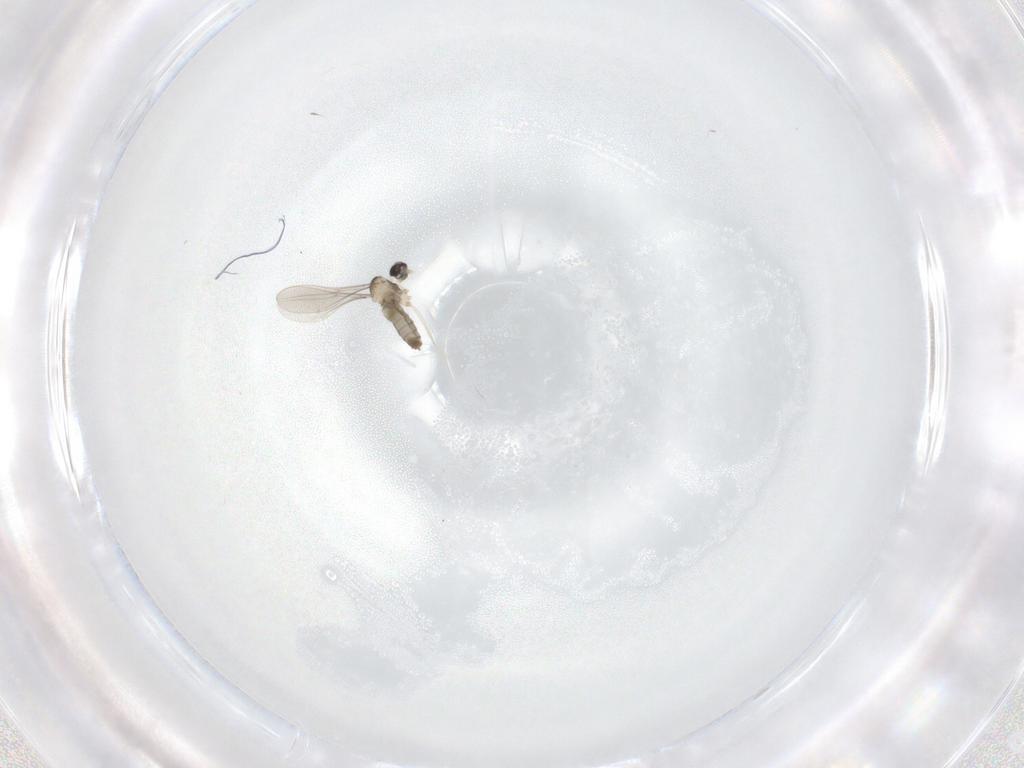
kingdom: Animalia
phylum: Arthropoda
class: Insecta
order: Diptera
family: Cecidomyiidae
